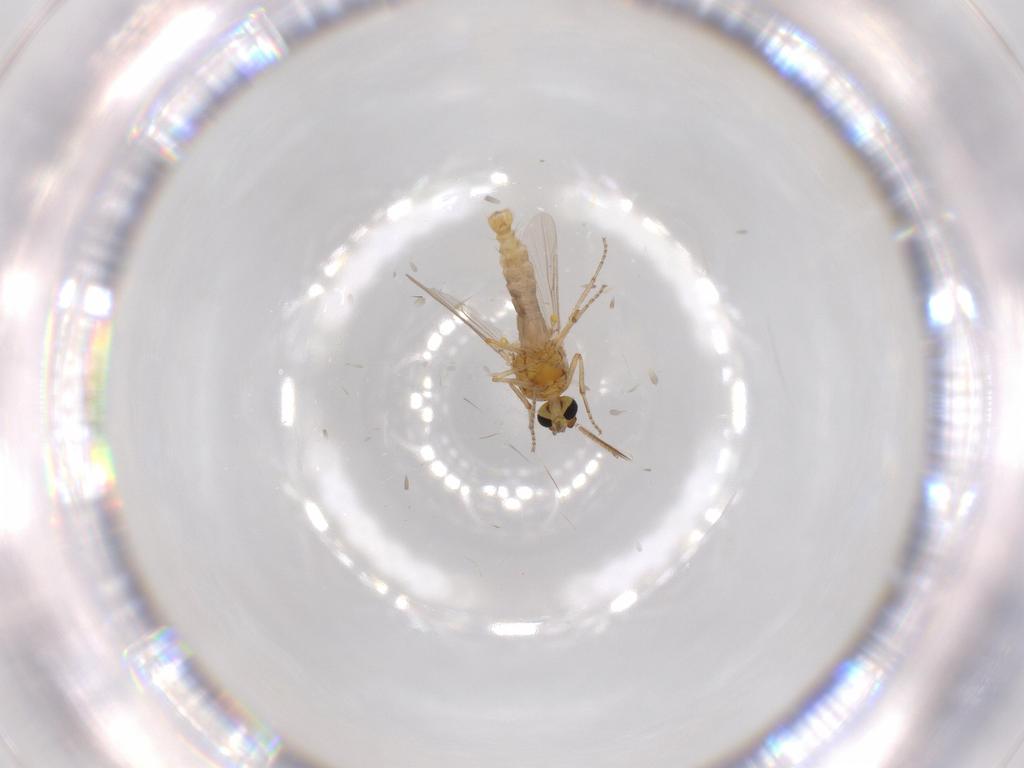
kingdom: Animalia
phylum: Arthropoda
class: Insecta
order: Diptera
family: Ceratopogonidae
